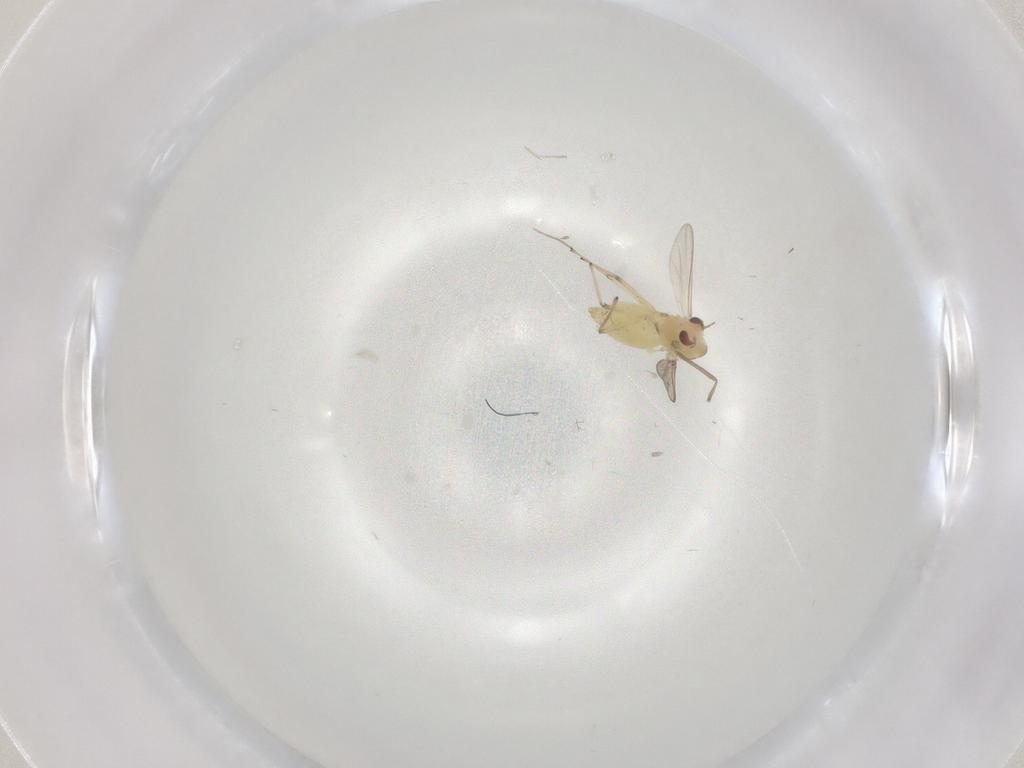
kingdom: Animalia
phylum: Arthropoda
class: Insecta
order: Diptera
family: Chironomidae
